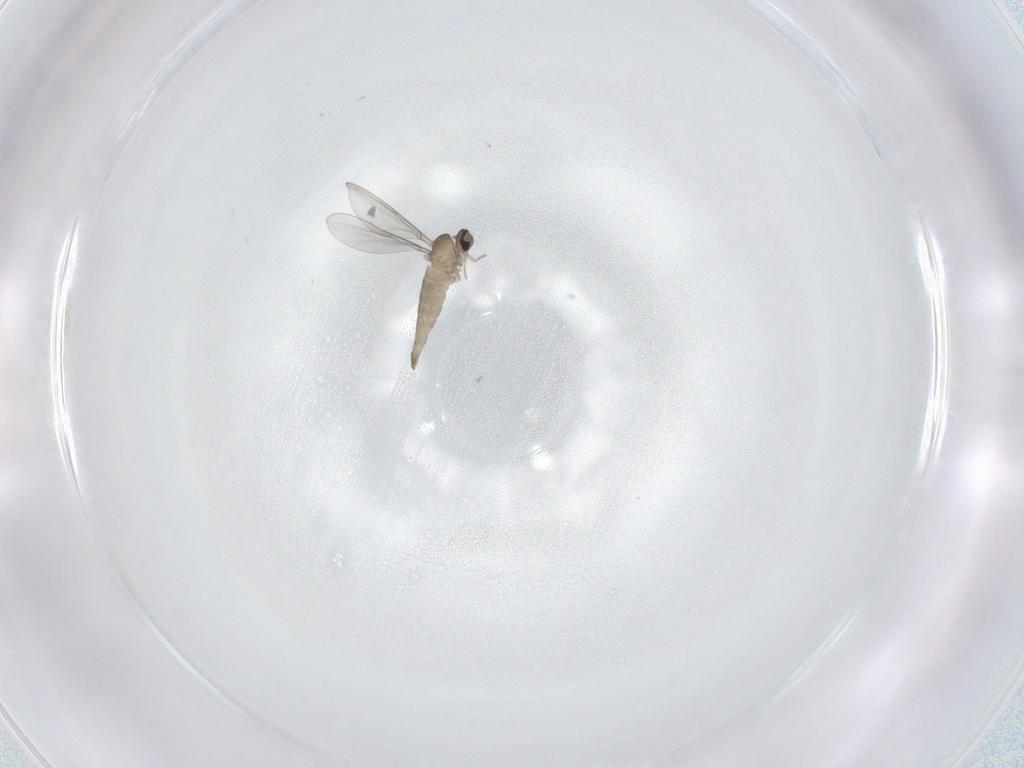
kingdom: Animalia
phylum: Arthropoda
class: Insecta
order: Diptera
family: Cecidomyiidae
